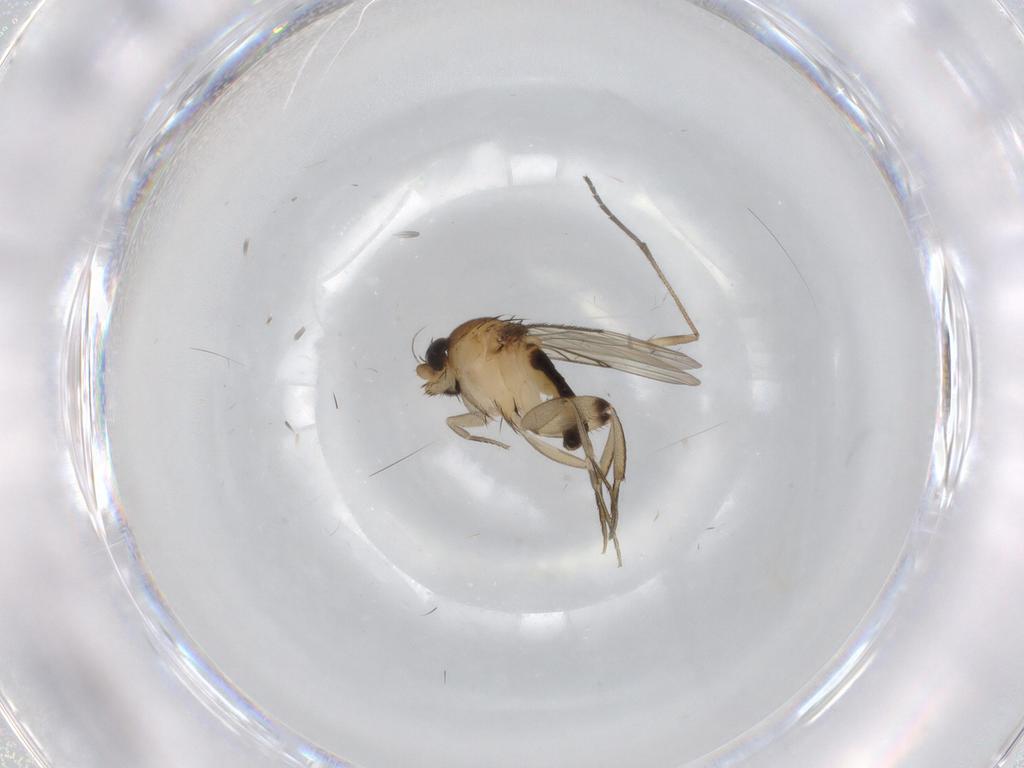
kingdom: Animalia
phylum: Arthropoda
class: Insecta
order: Diptera
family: Phoridae
